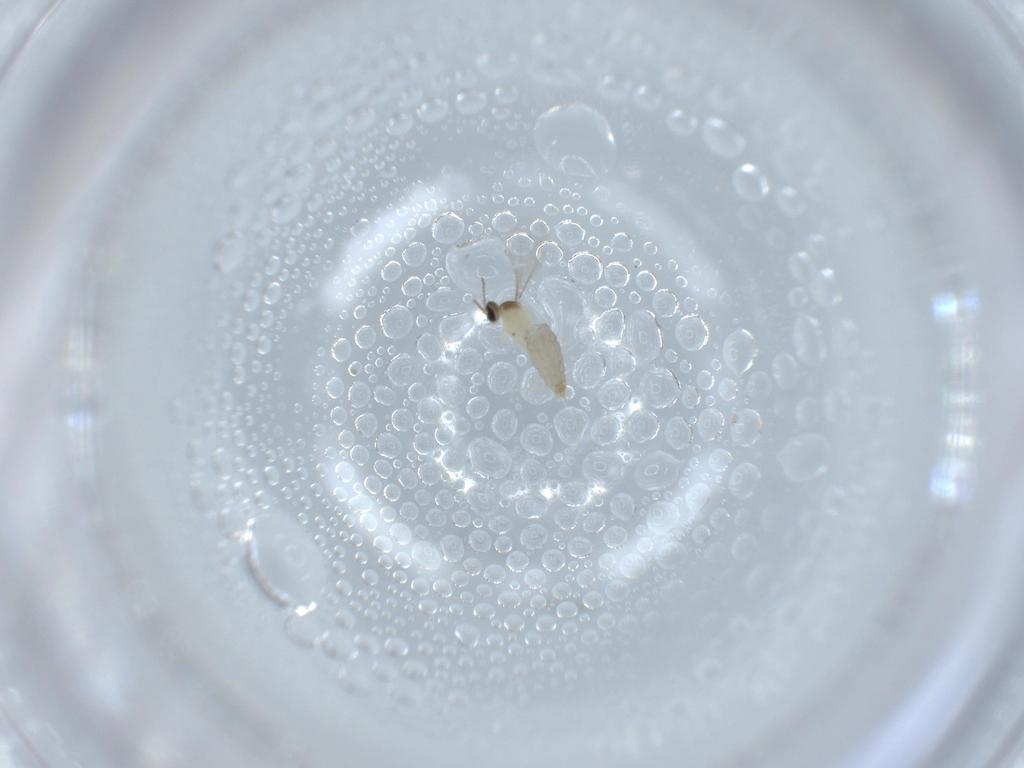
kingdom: Animalia
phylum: Arthropoda
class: Insecta
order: Diptera
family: Phoridae
